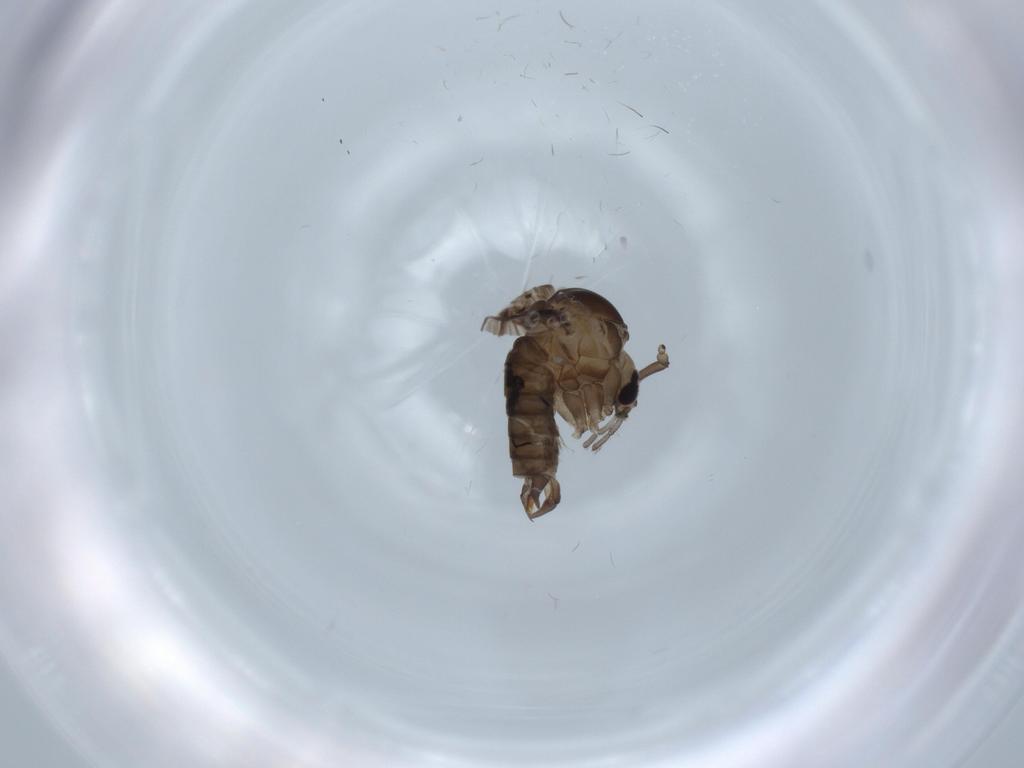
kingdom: Animalia
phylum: Arthropoda
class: Insecta
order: Diptera
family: Psychodidae
